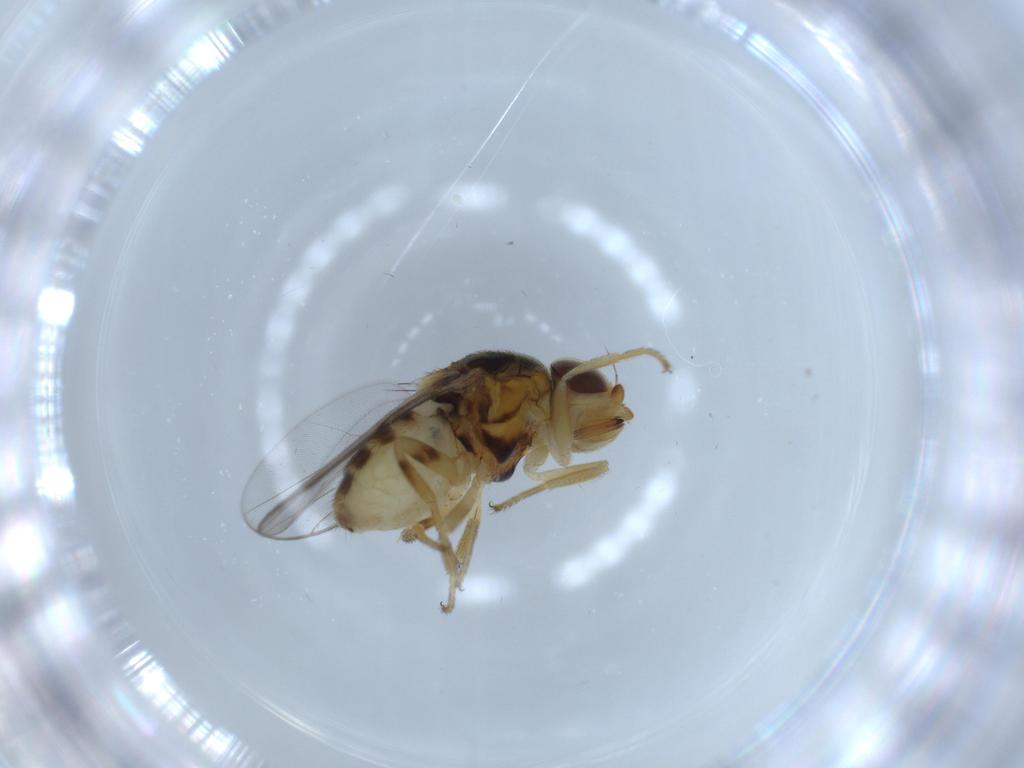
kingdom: Animalia
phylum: Arthropoda
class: Insecta
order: Diptera
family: Chloropidae
